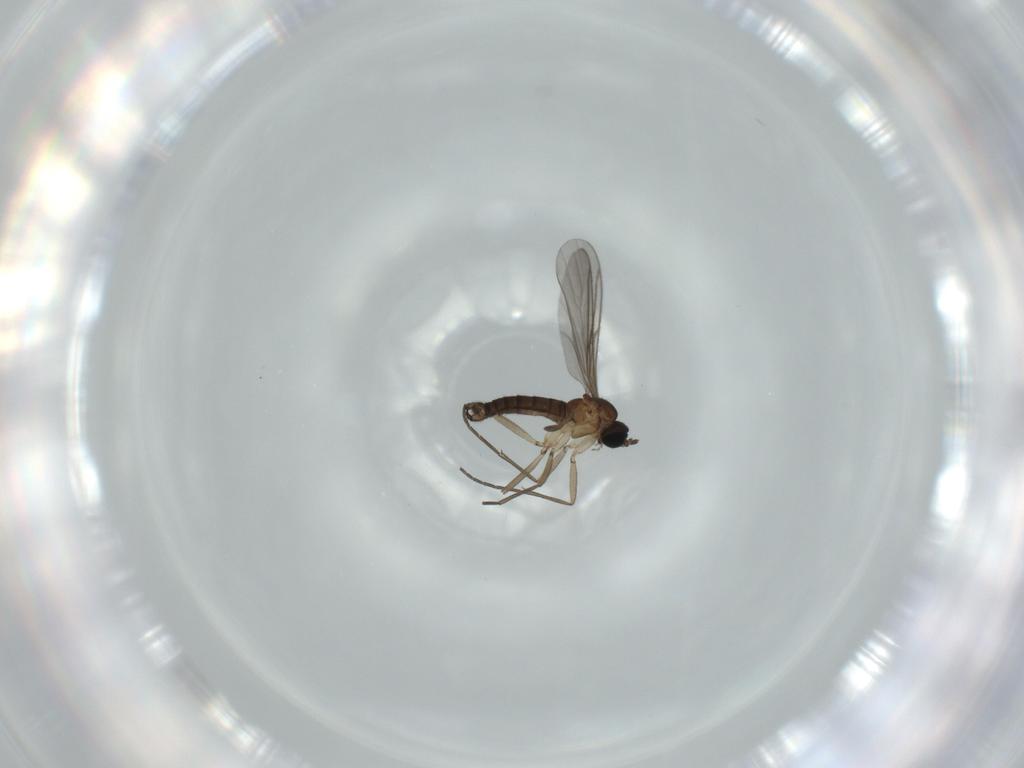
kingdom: Animalia
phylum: Arthropoda
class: Insecta
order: Diptera
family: Sciaridae
